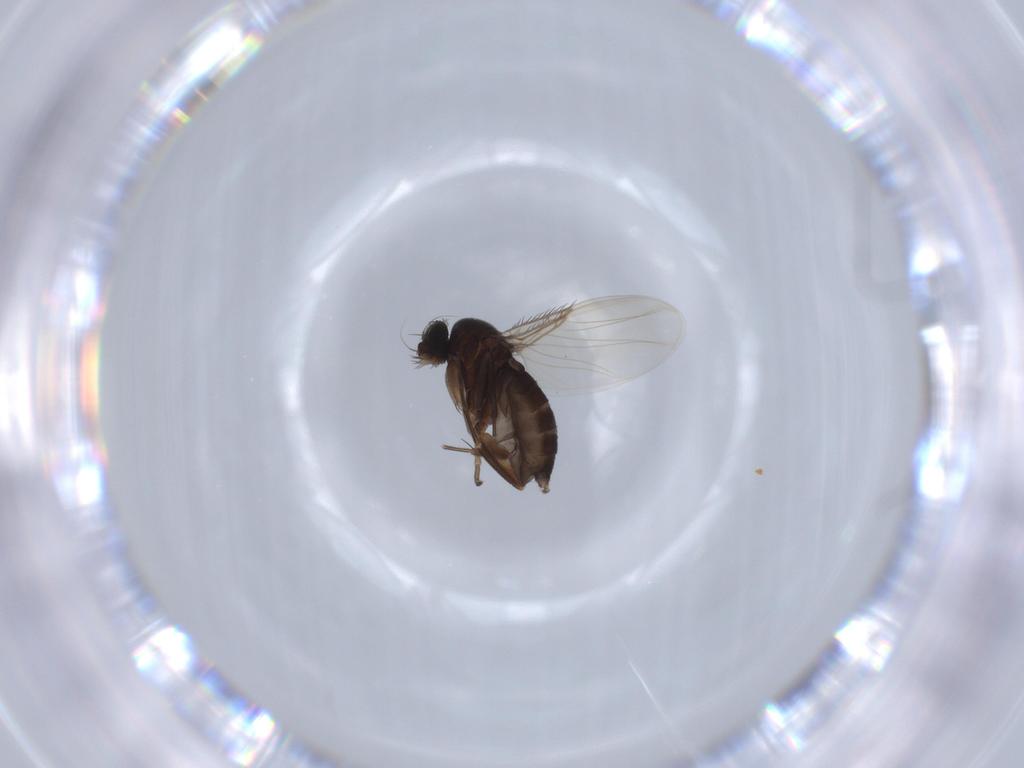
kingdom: Animalia
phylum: Arthropoda
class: Insecta
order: Diptera
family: Phoridae
